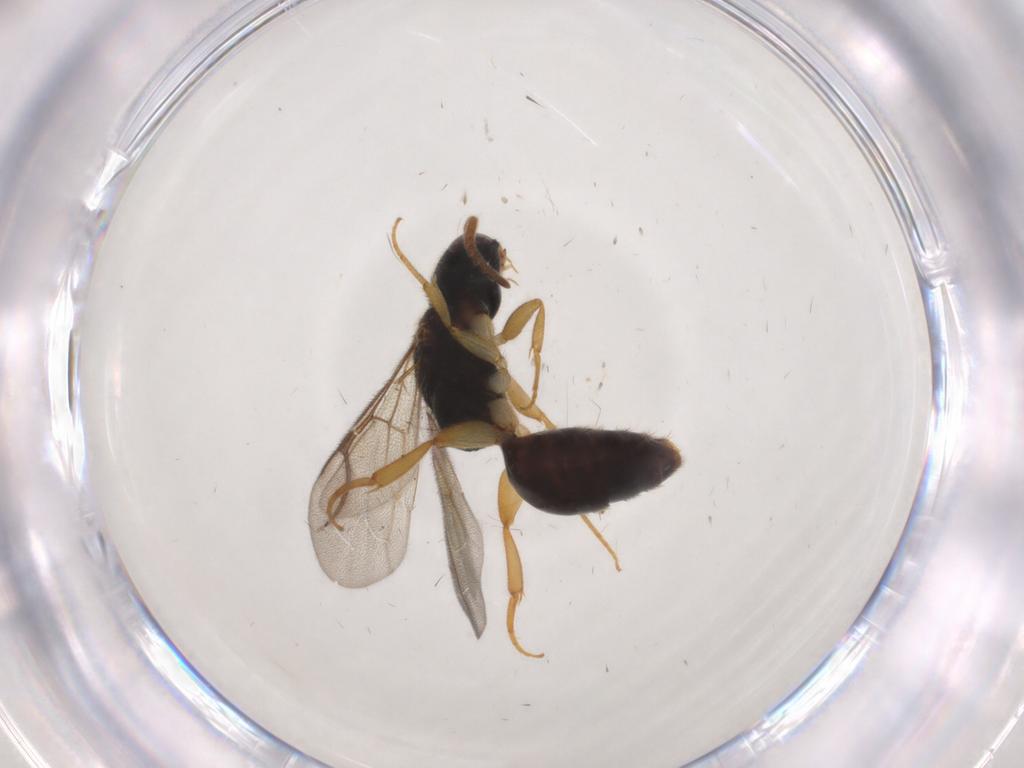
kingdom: Animalia
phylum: Arthropoda
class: Insecta
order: Hymenoptera
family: Bethylidae
